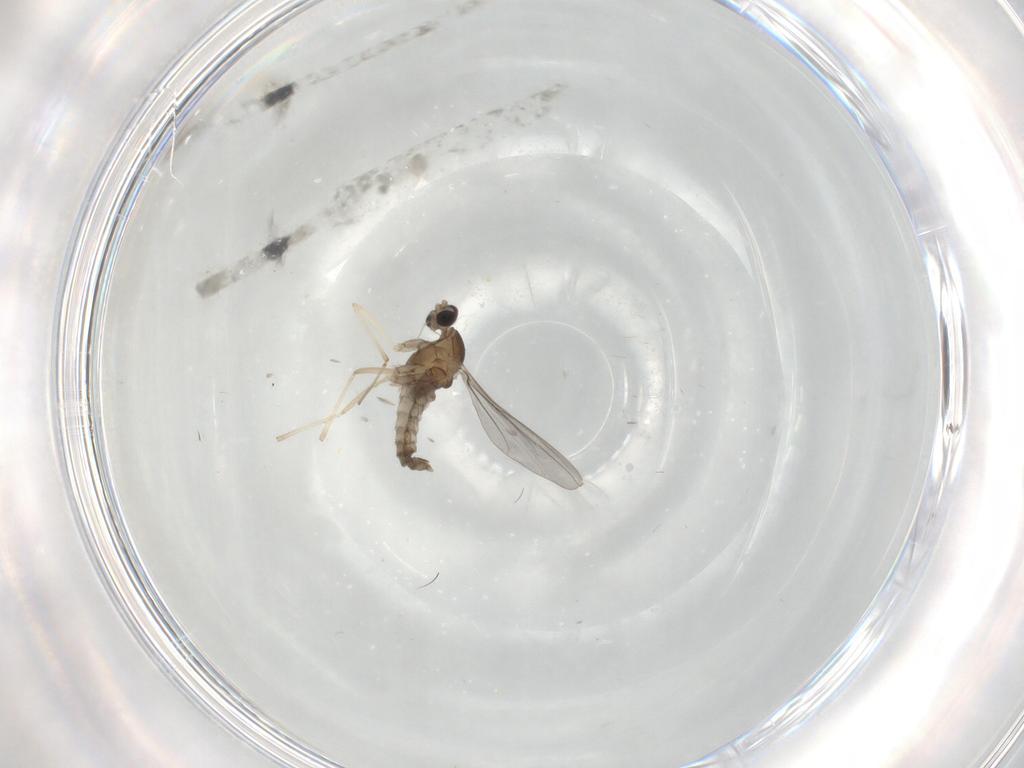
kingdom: Animalia
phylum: Arthropoda
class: Insecta
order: Diptera
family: Cecidomyiidae
